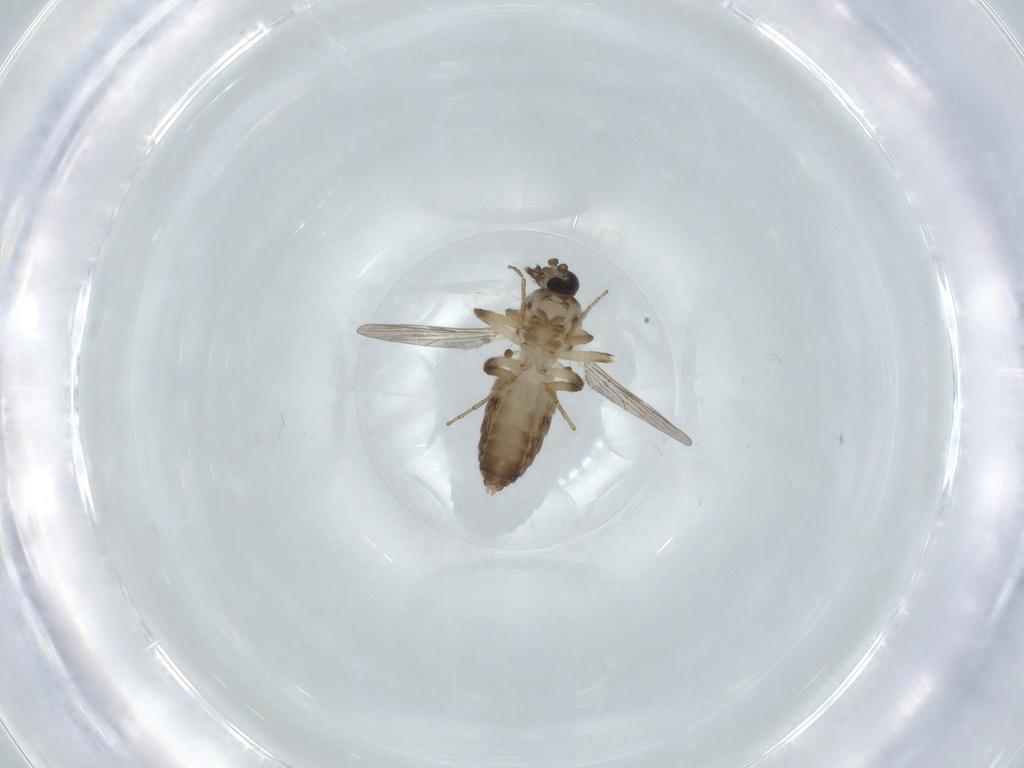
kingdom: Animalia
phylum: Arthropoda
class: Insecta
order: Diptera
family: Ceratopogonidae
